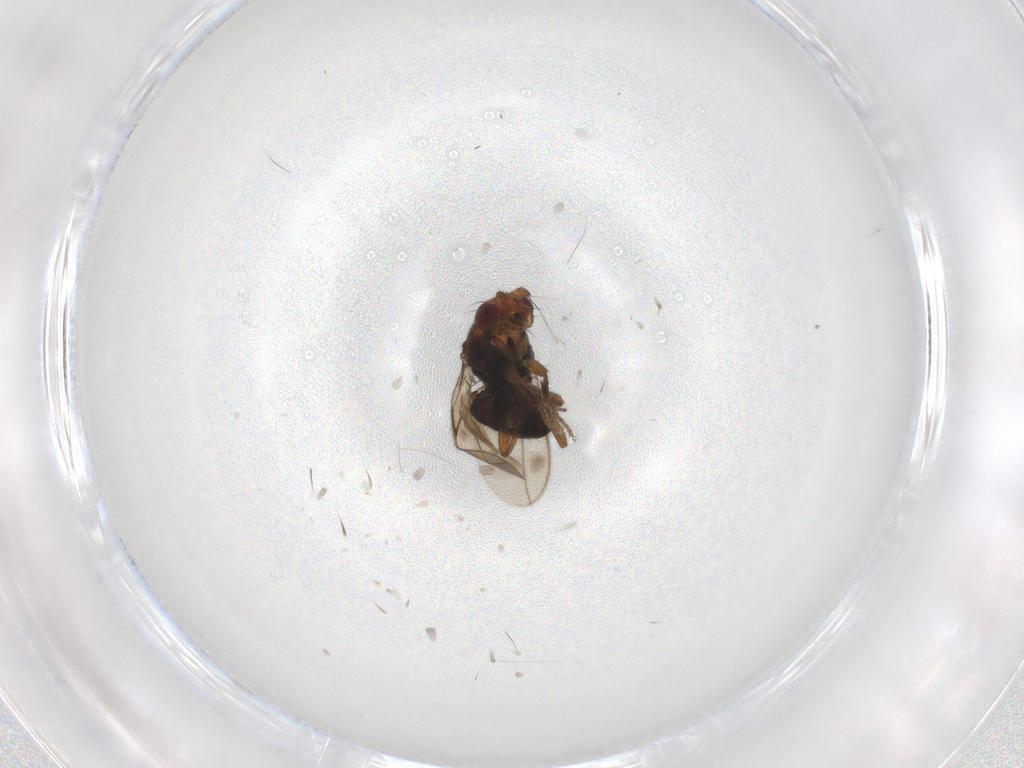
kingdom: Animalia
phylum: Arthropoda
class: Insecta
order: Diptera
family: Sphaeroceridae
